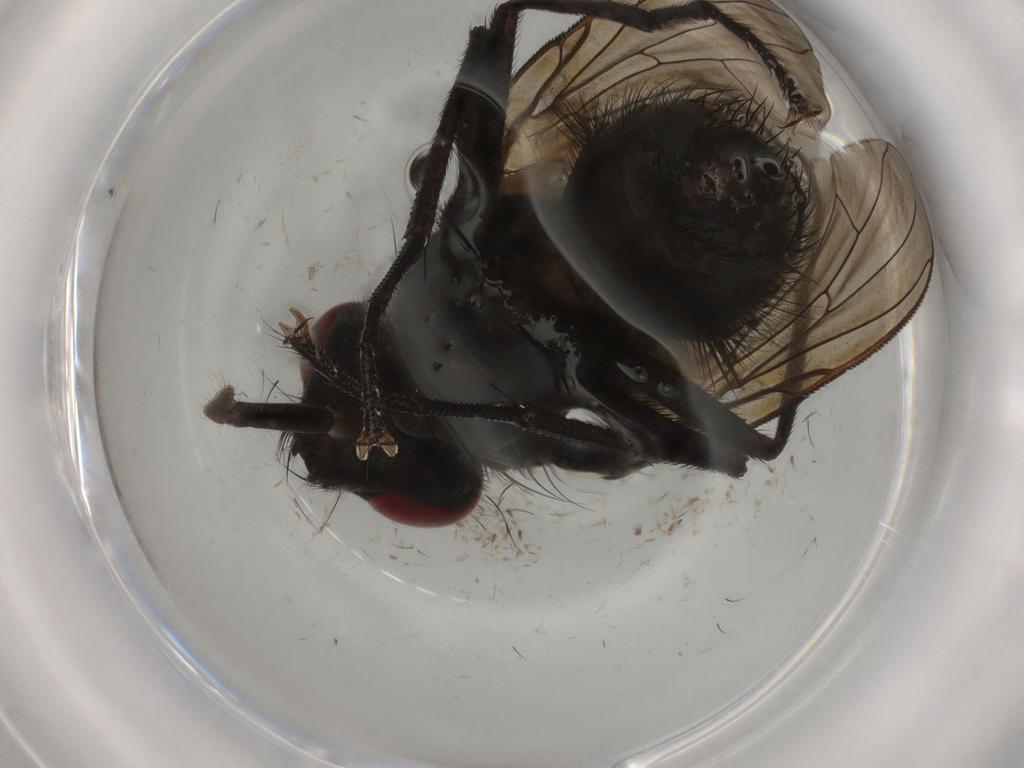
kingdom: Animalia
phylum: Arthropoda
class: Insecta
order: Diptera
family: Muscidae
